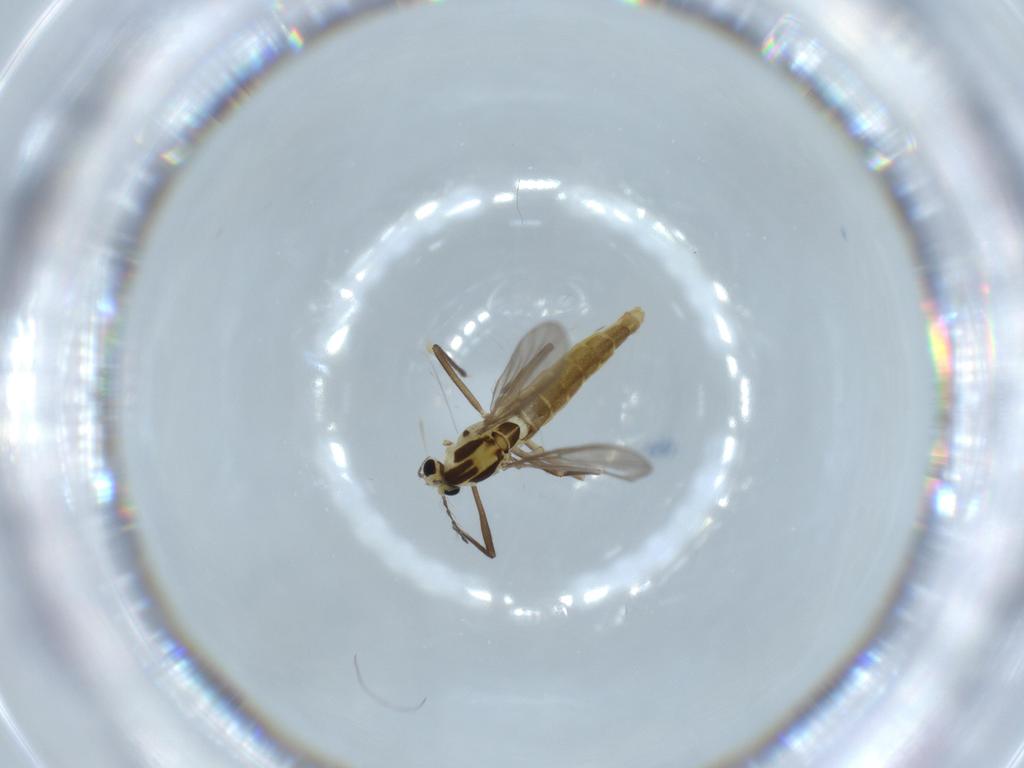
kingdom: Animalia
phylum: Arthropoda
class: Insecta
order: Diptera
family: Chironomidae
